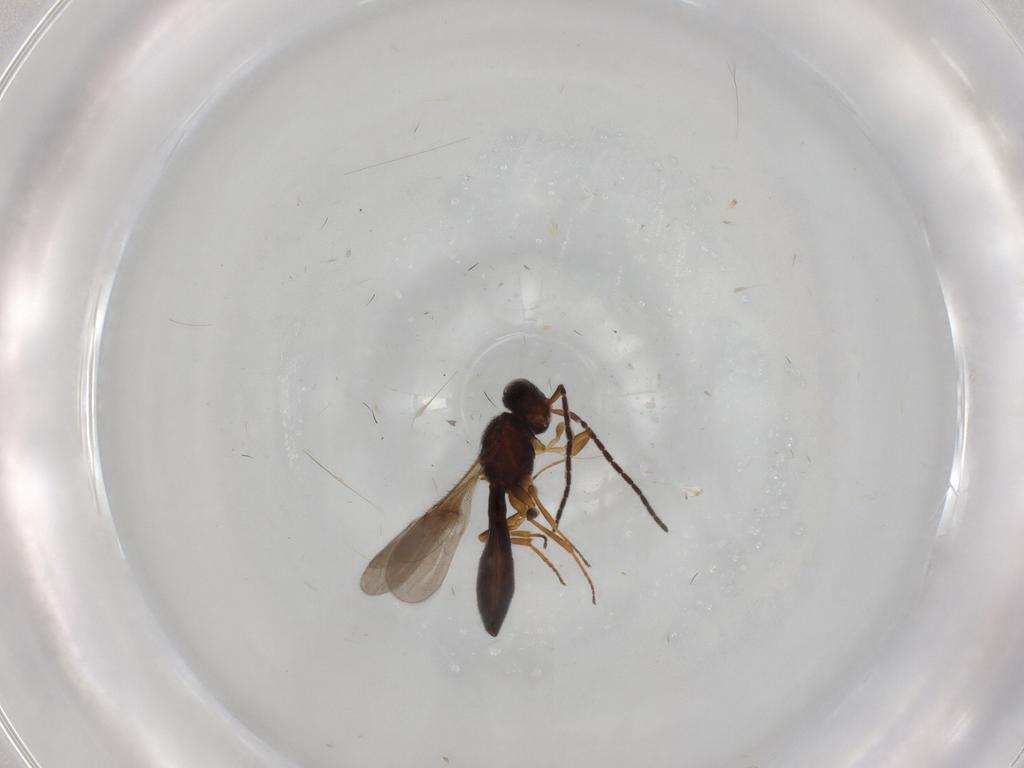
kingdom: Animalia
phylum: Arthropoda
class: Insecta
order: Hymenoptera
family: Scelionidae
